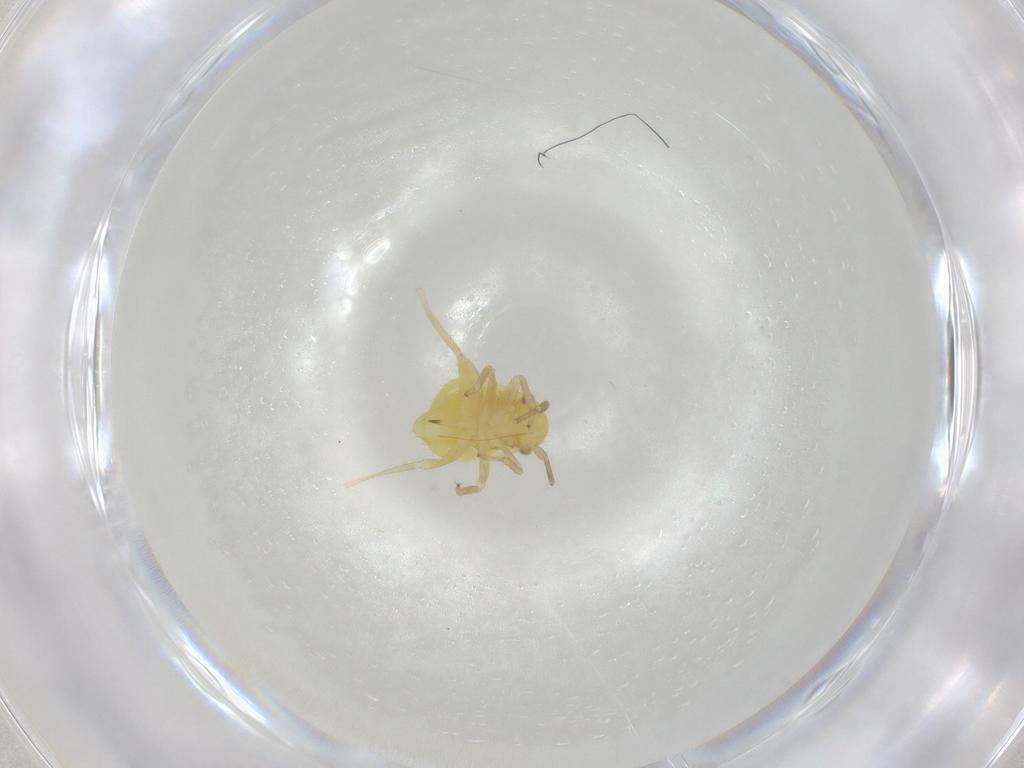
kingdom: Animalia
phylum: Arthropoda
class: Insecta
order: Hemiptera
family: Miridae
